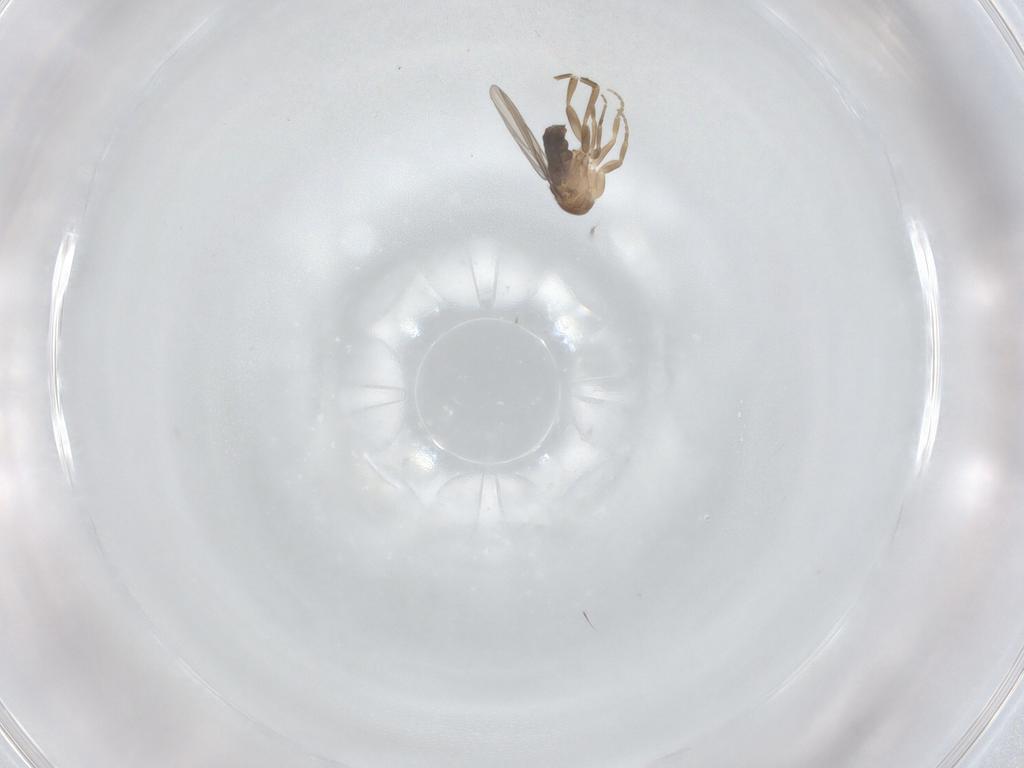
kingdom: Animalia
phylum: Arthropoda
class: Insecta
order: Diptera
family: Phoridae
